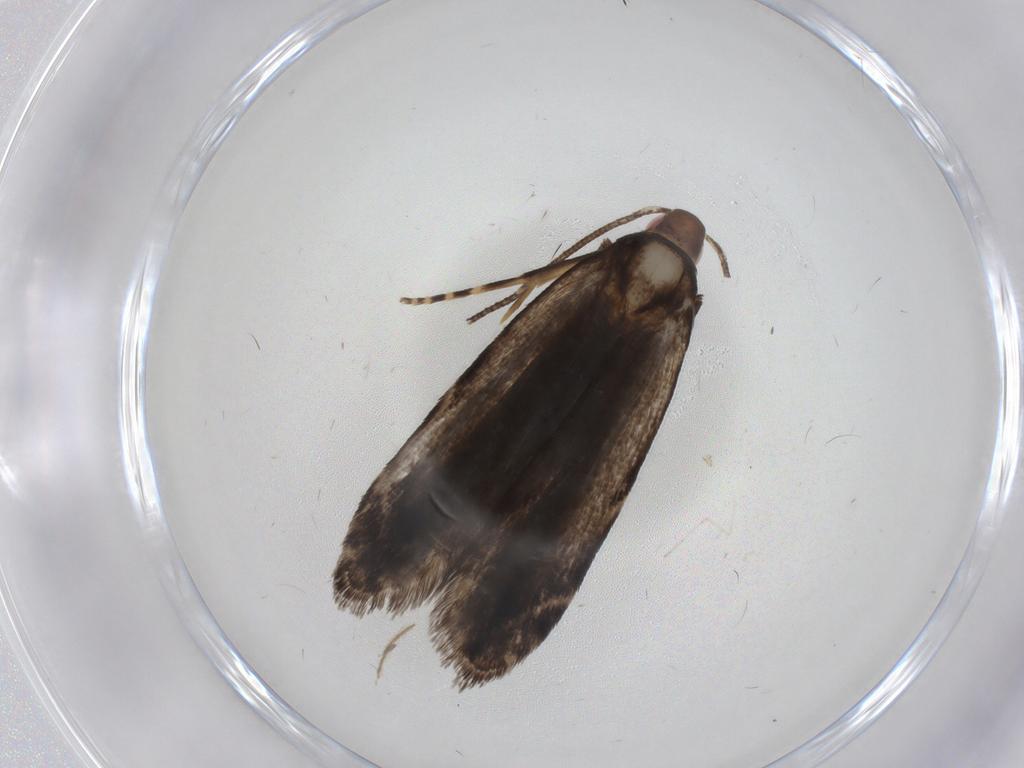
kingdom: Animalia
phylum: Arthropoda
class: Insecta
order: Lepidoptera
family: Gelechiidae
